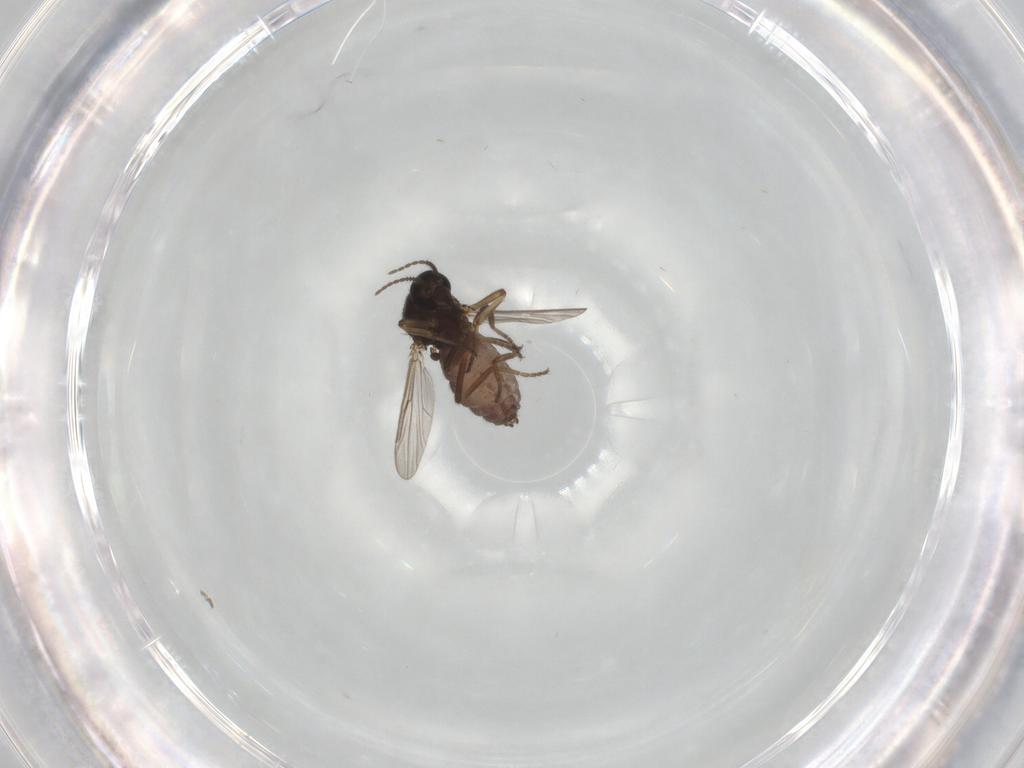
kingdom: Animalia
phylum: Arthropoda
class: Insecta
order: Diptera
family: Ceratopogonidae
